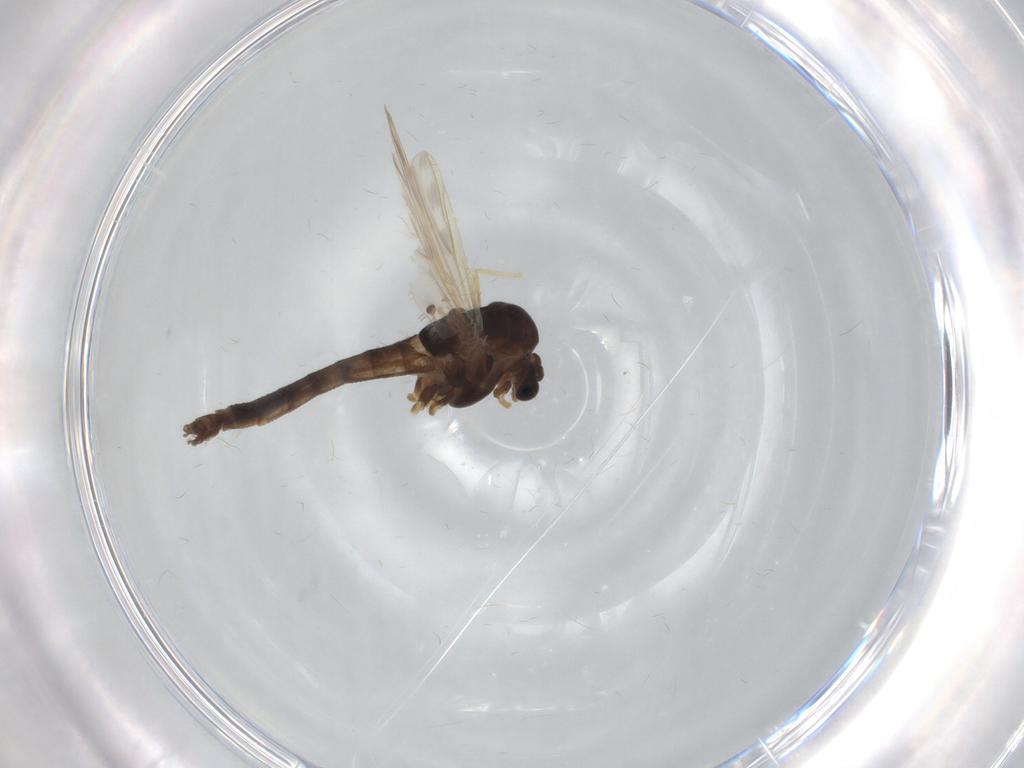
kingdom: Animalia
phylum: Arthropoda
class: Insecta
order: Diptera
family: Chironomidae
